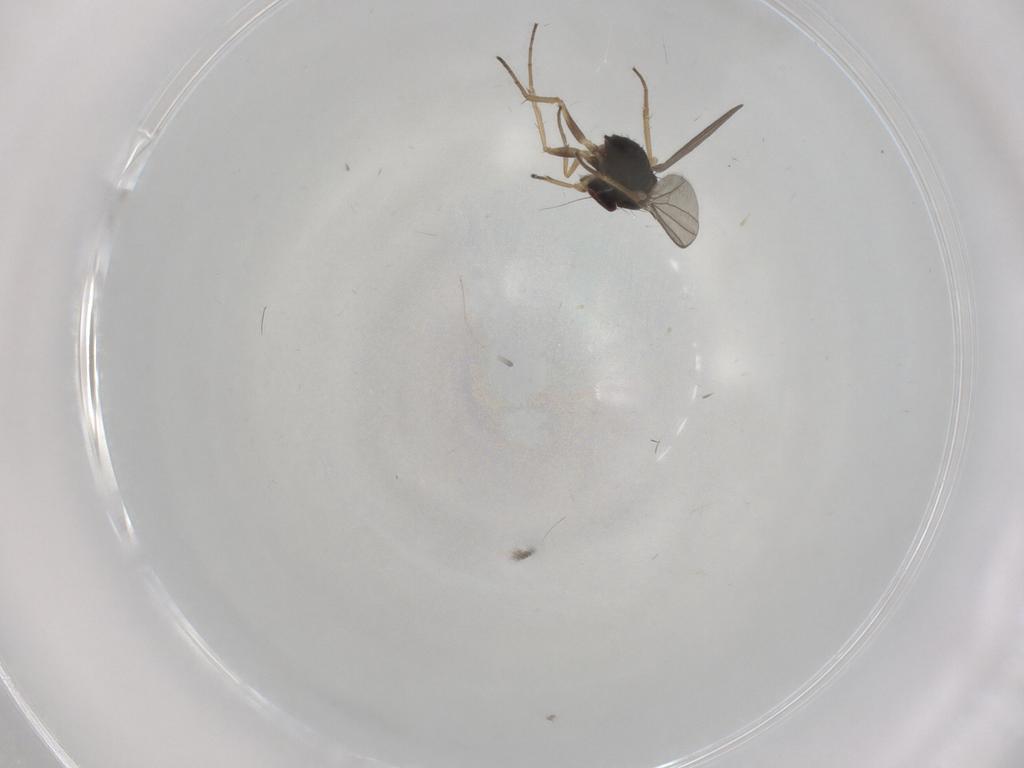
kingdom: Animalia
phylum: Arthropoda
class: Insecta
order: Diptera
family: Dolichopodidae
